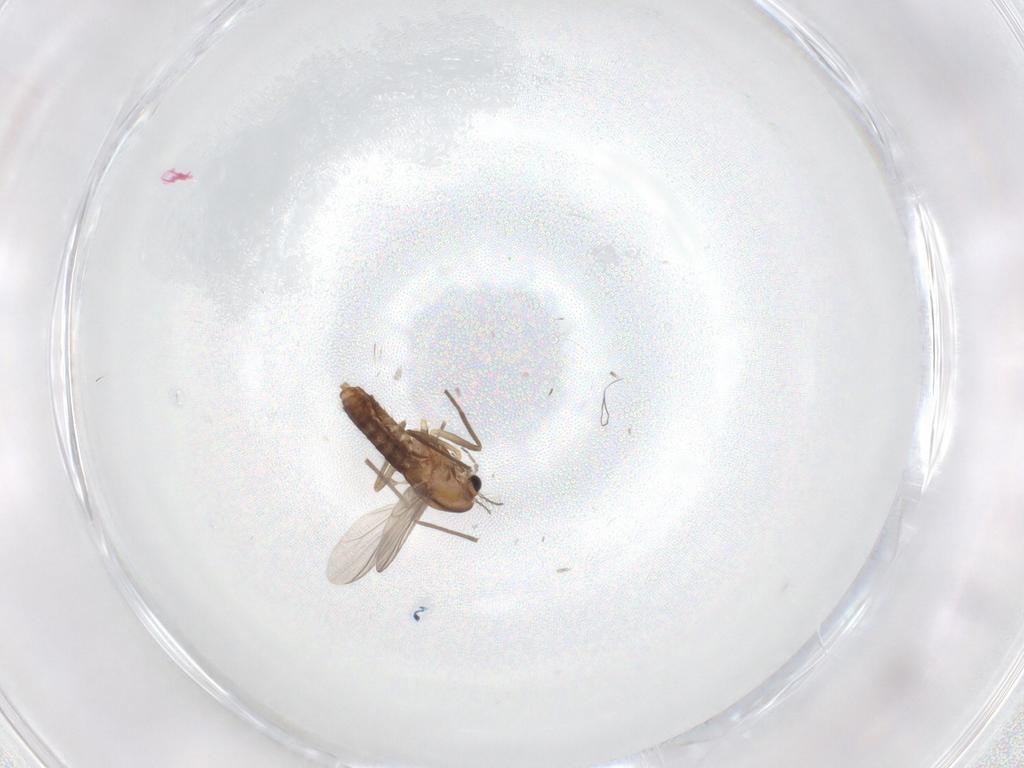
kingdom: Animalia
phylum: Arthropoda
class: Insecta
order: Diptera
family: Chironomidae
